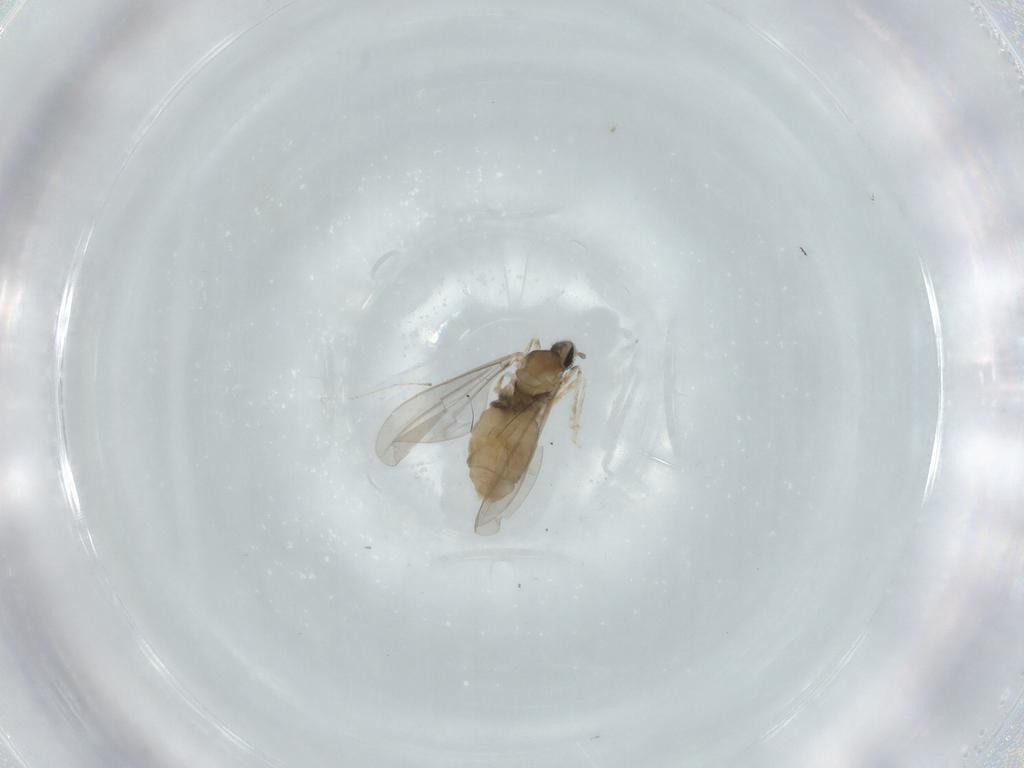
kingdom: Animalia
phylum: Arthropoda
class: Insecta
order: Diptera
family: Cecidomyiidae
